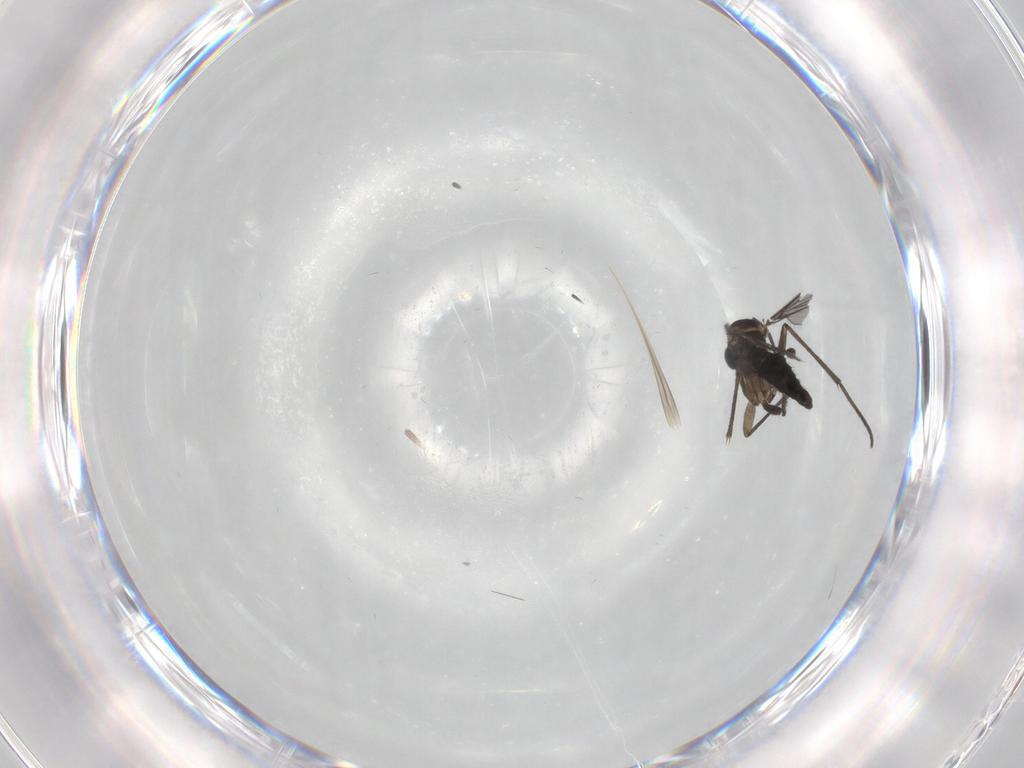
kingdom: Animalia
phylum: Arthropoda
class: Insecta
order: Diptera
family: Sciaridae
